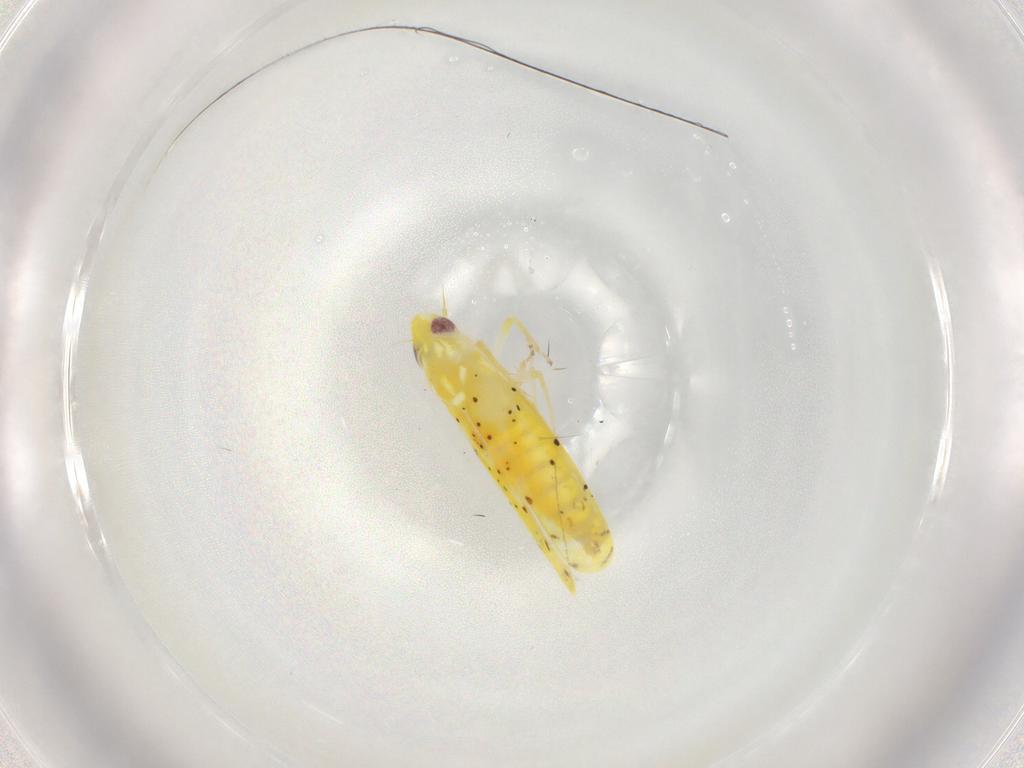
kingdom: Animalia
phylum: Arthropoda
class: Insecta
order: Hemiptera
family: Cicadellidae
